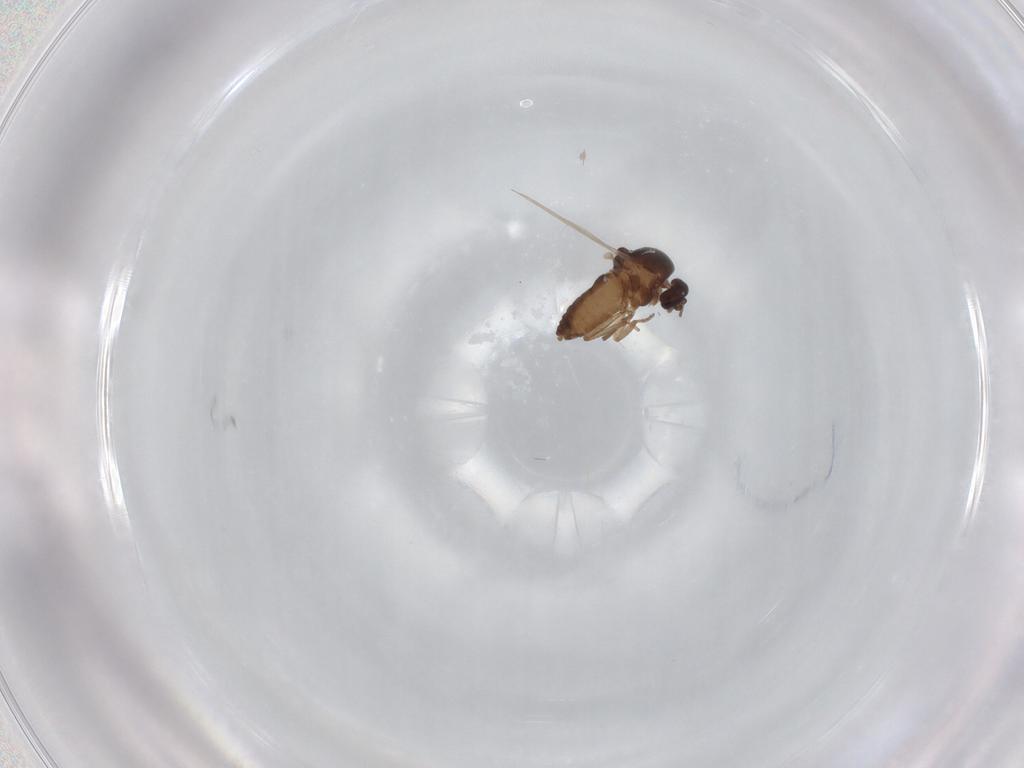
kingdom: Animalia
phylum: Arthropoda
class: Insecta
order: Diptera
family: Ceratopogonidae
